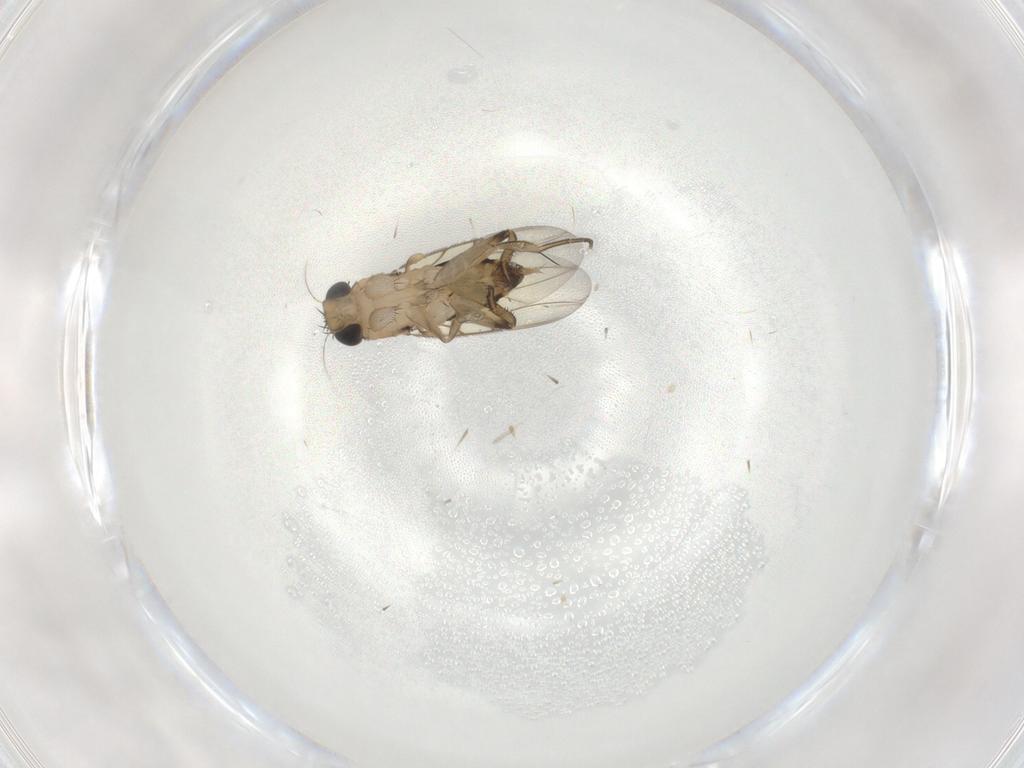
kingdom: Animalia
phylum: Arthropoda
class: Insecta
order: Diptera
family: Phoridae
